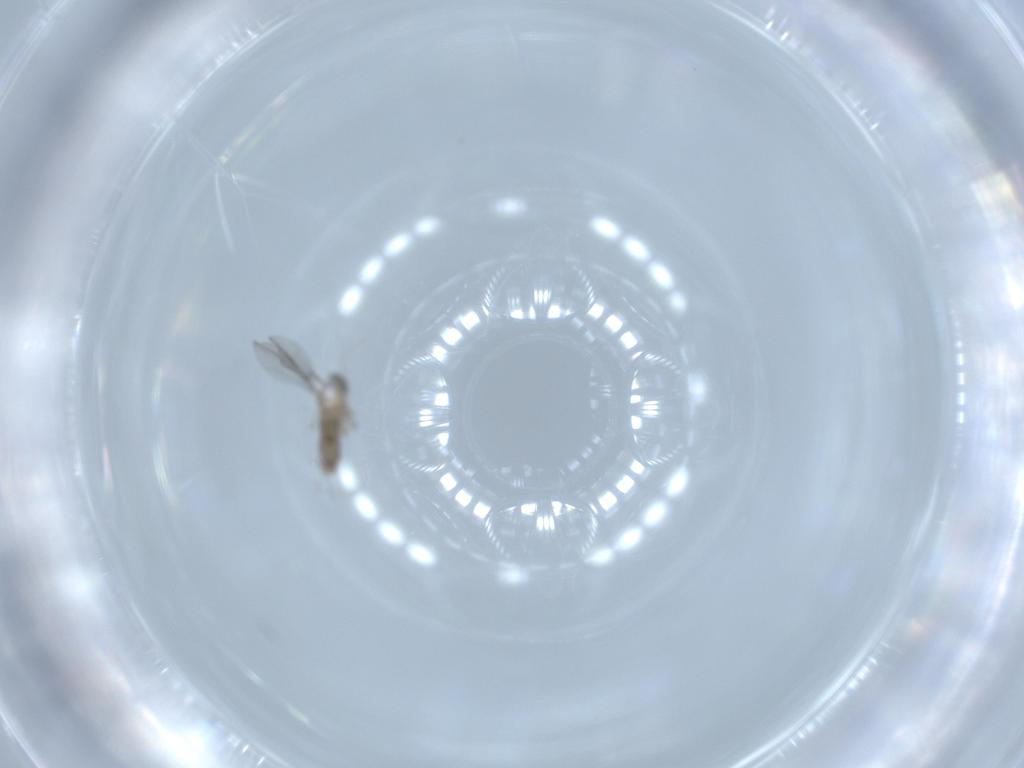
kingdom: Animalia
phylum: Arthropoda
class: Insecta
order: Diptera
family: Cecidomyiidae
